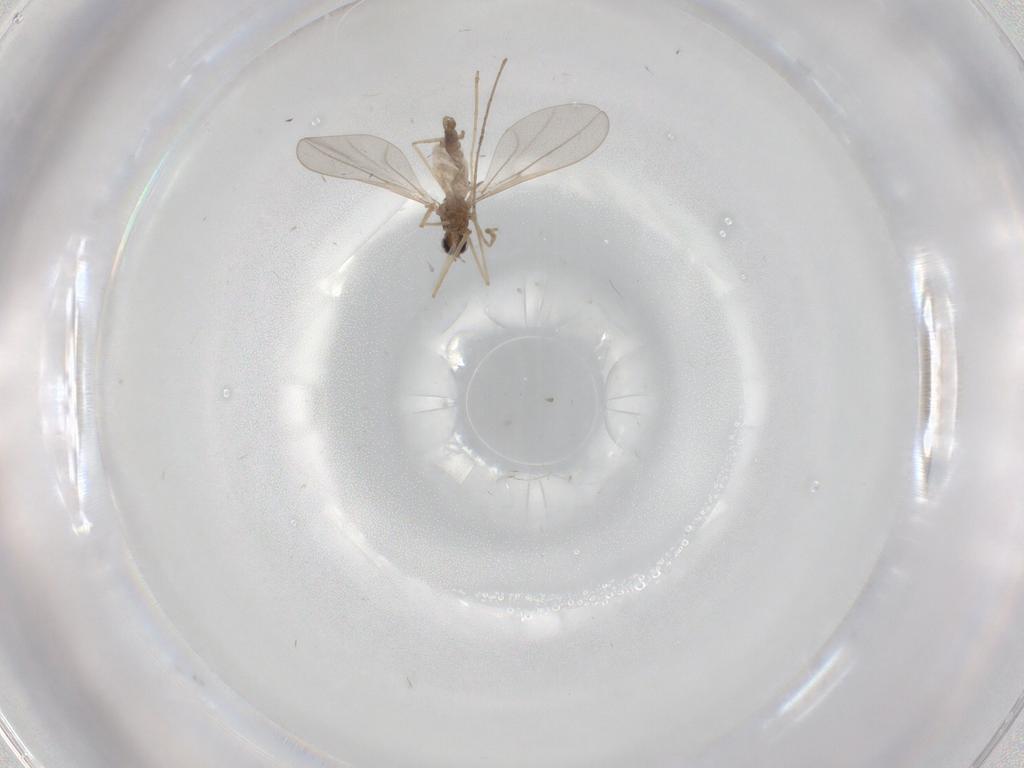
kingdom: Animalia
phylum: Arthropoda
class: Insecta
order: Diptera
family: Cecidomyiidae
